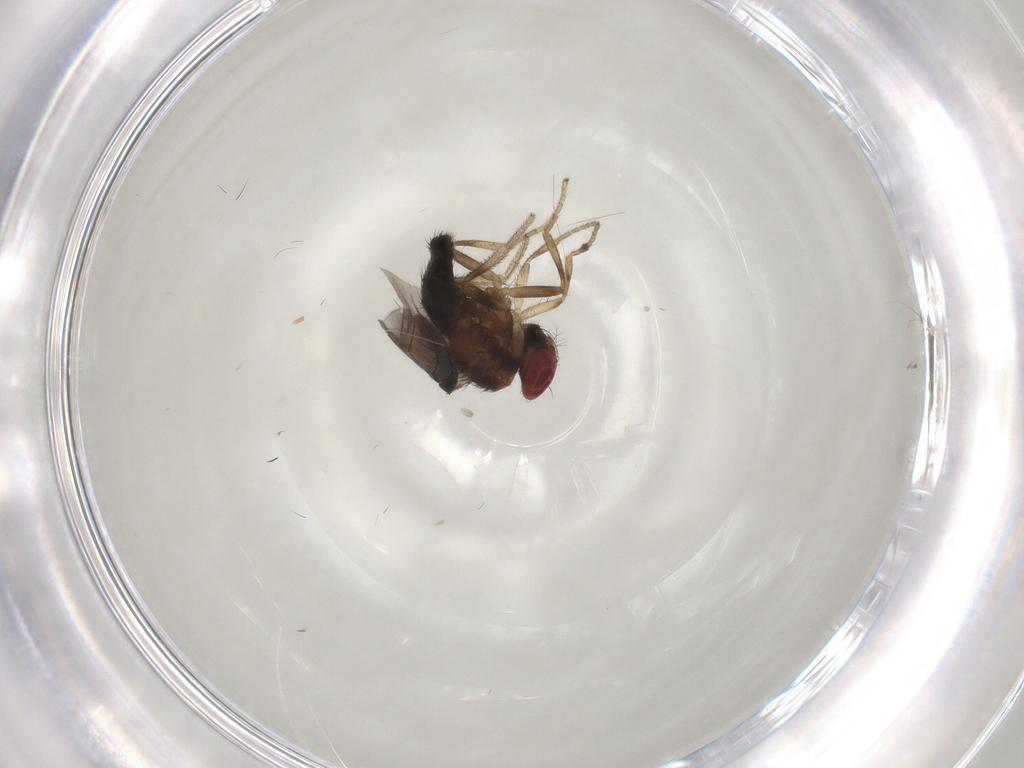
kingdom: Animalia
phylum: Arthropoda
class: Insecta
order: Diptera
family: Drosophilidae
